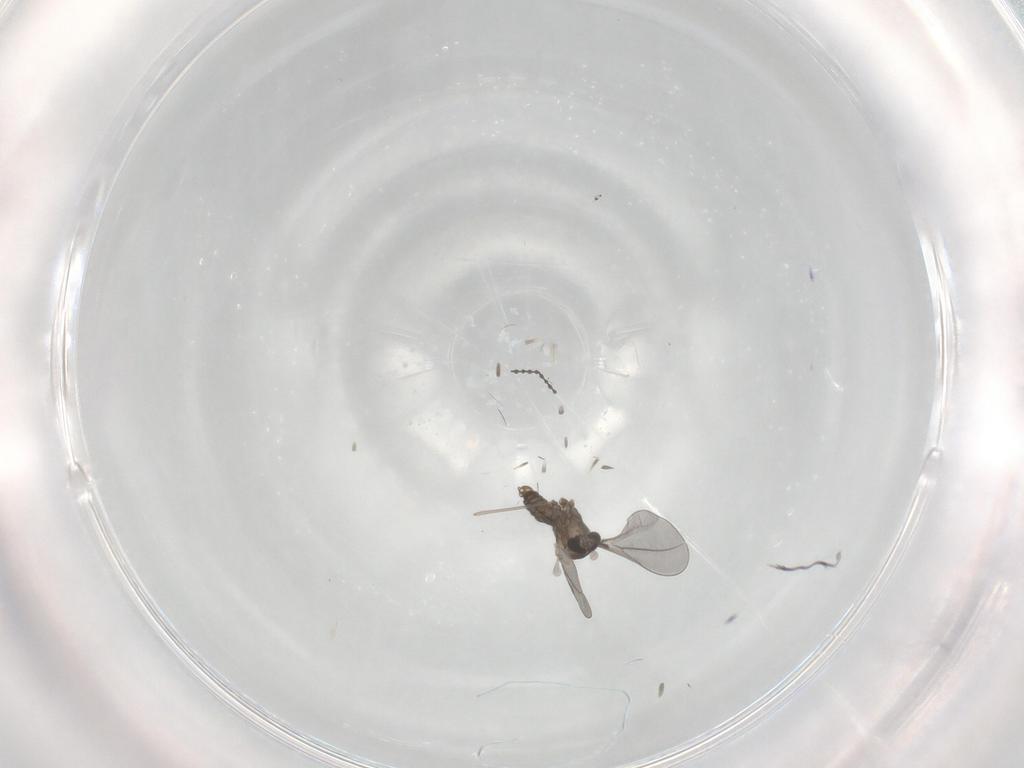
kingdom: Animalia
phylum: Arthropoda
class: Insecta
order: Diptera
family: Cecidomyiidae
